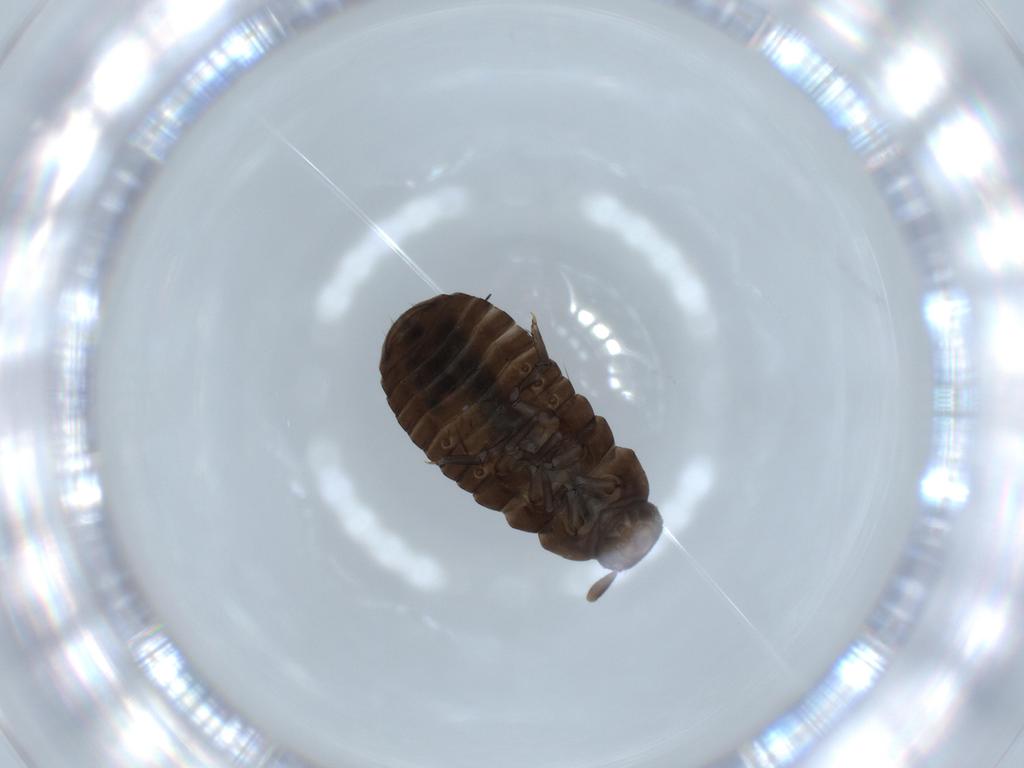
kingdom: Animalia
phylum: Arthropoda
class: Insecta
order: Coleoptera
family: Tenebrionidae
